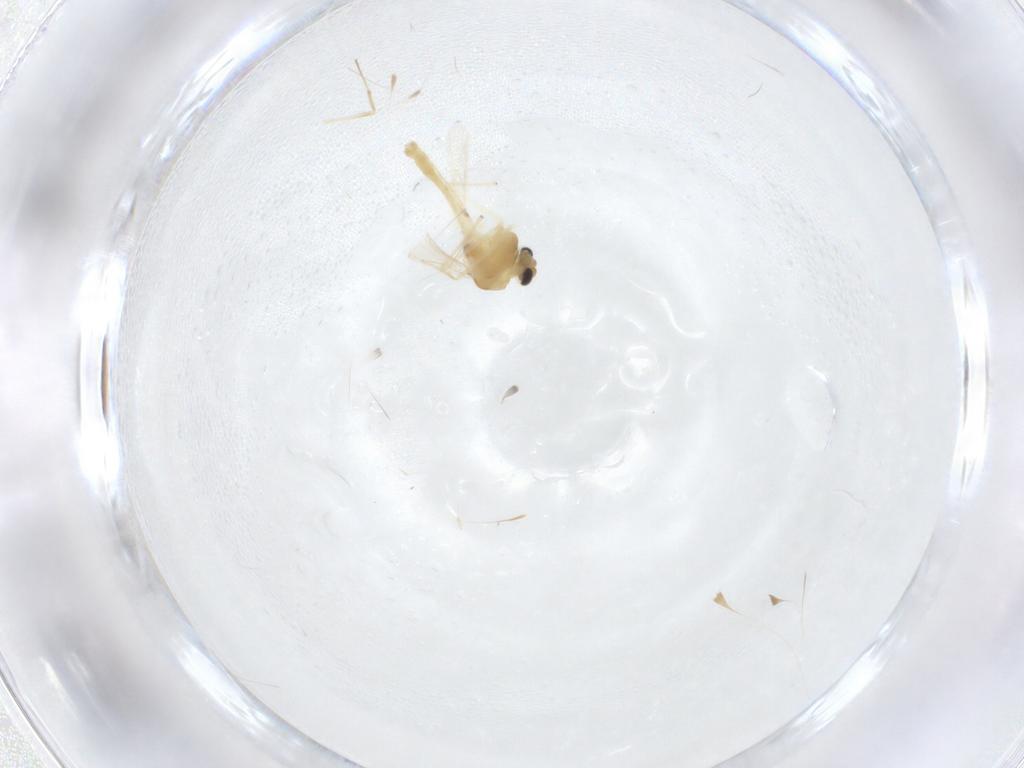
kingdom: Animalia
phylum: Arthropoda
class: Insecta
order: Diptera
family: Chironomidae
